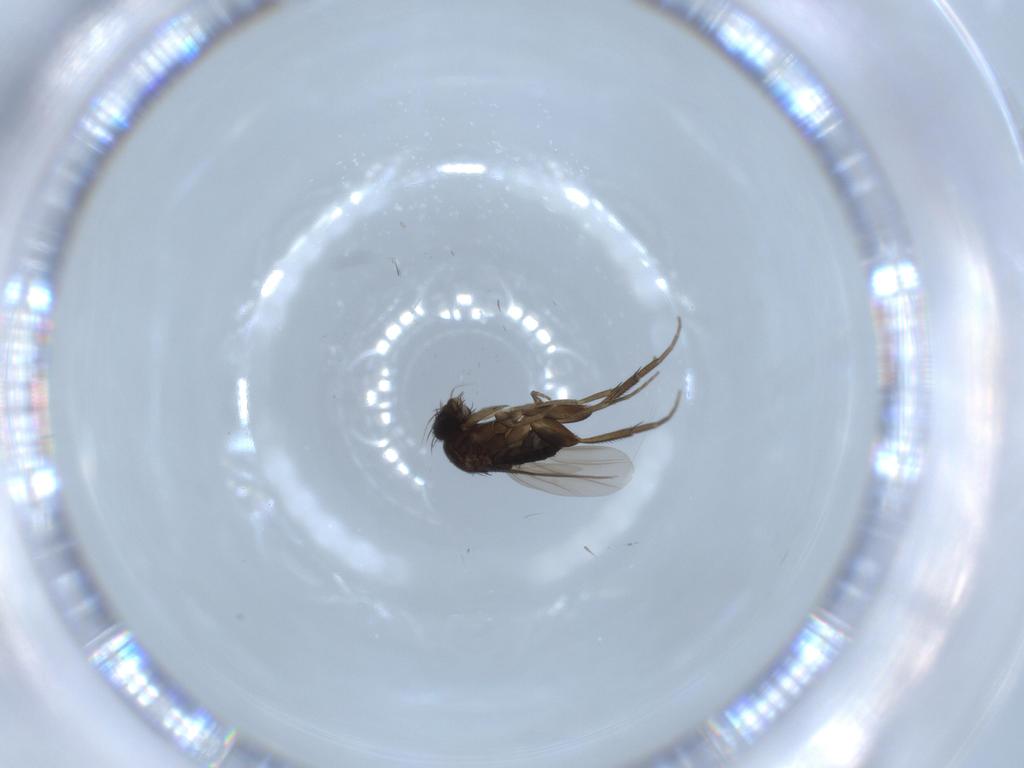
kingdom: Animalia
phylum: Arthropoda
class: Insecta
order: Diptera
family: Phoridae
